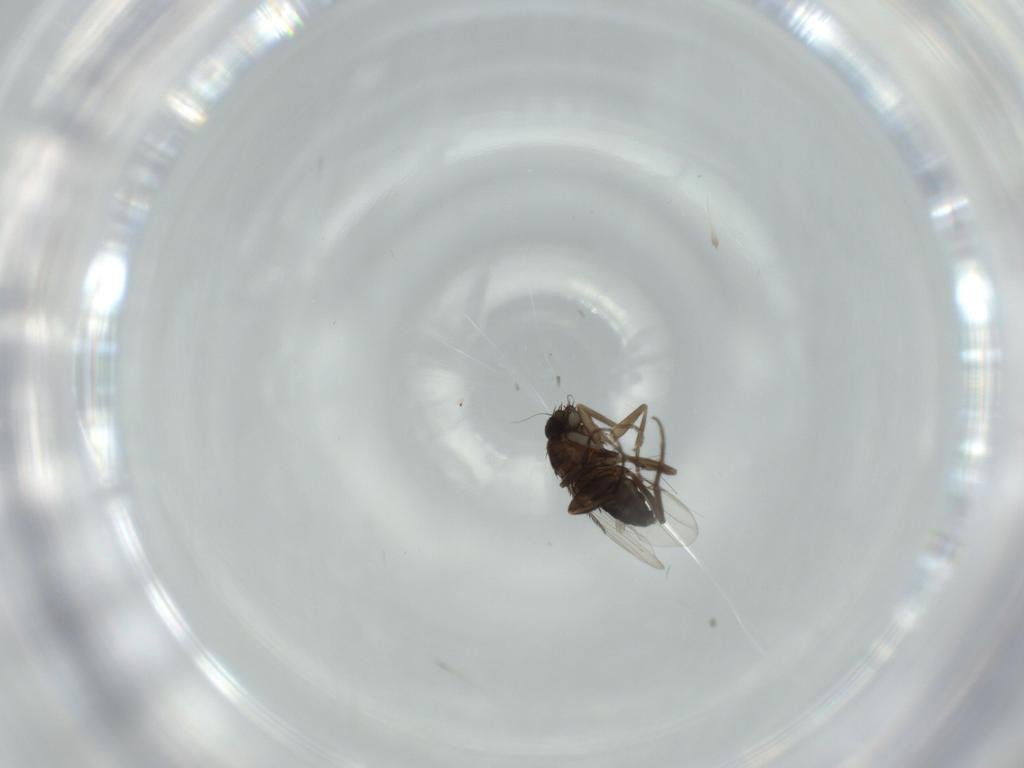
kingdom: Animalia
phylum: Arthropoda
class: Insecta
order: Diptera
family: Phoridae
